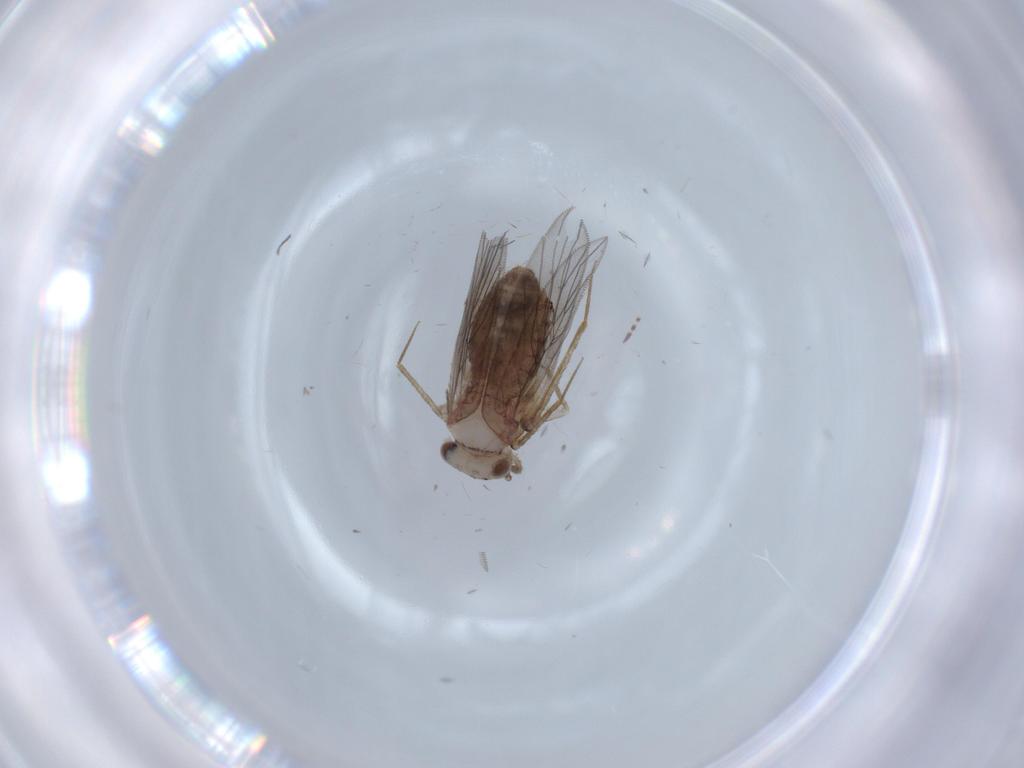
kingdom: Animalia
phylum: Arthropoda
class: Insecta
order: Psocodea
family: Lepidopsocidae
